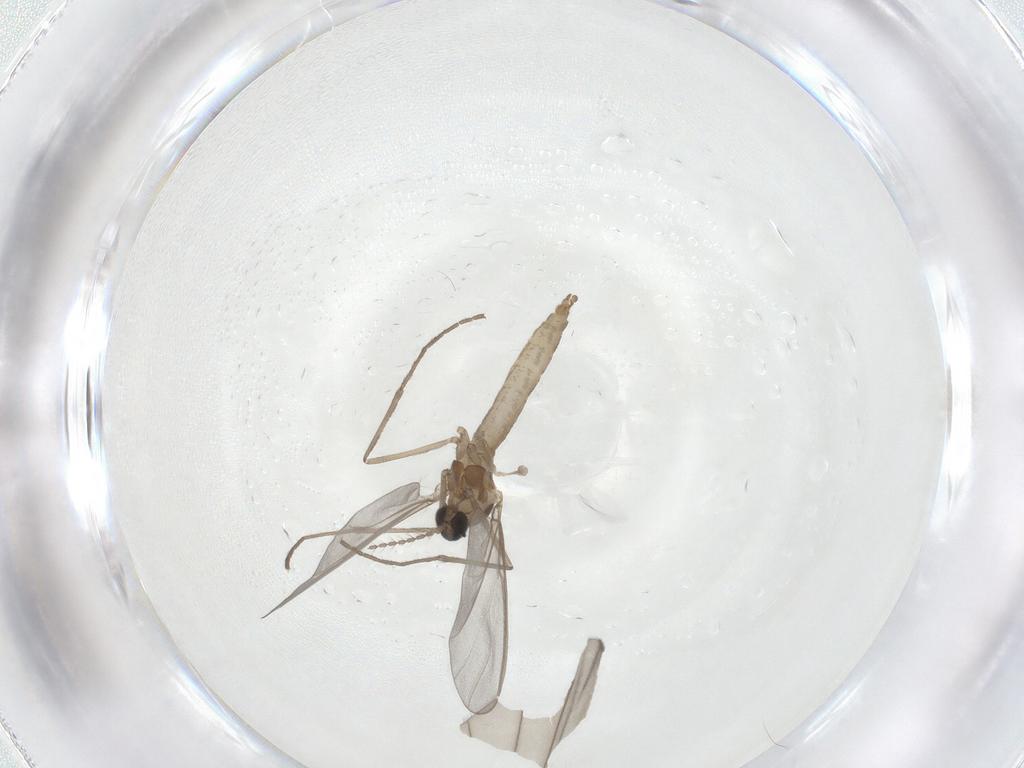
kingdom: Animalia
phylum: Arthropoda
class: Insecta
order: Diptera
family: Cecidomyiidae
